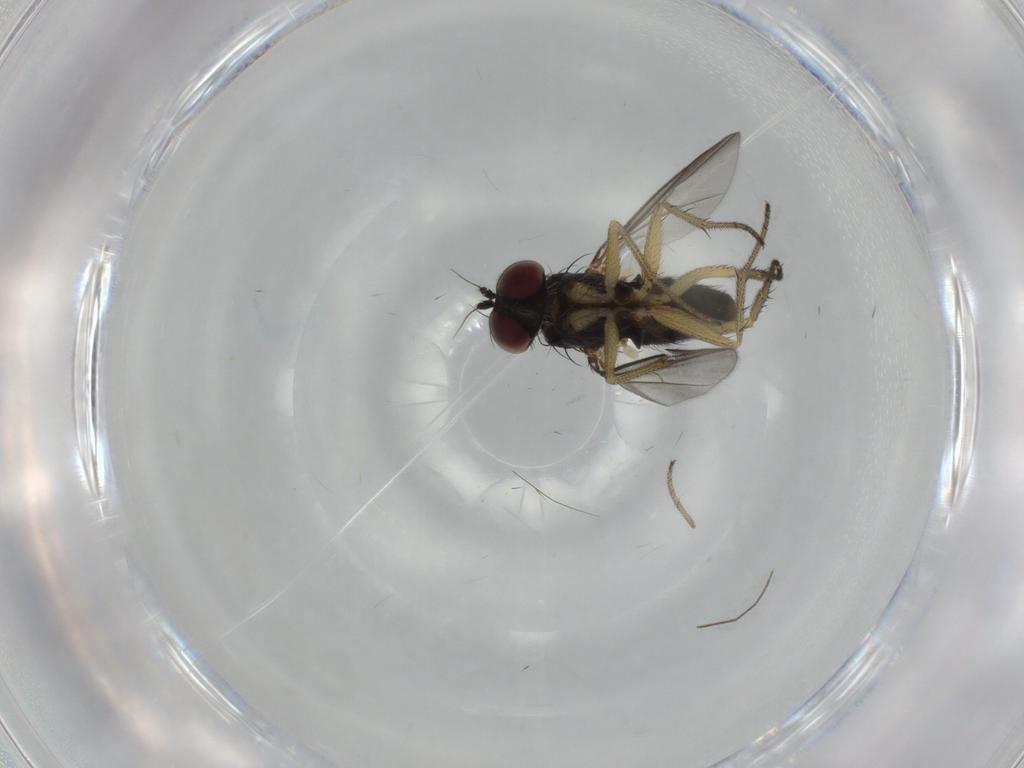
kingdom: Animalia
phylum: Arthropoda
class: Insecta
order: Diptera
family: Dolichopodidae
